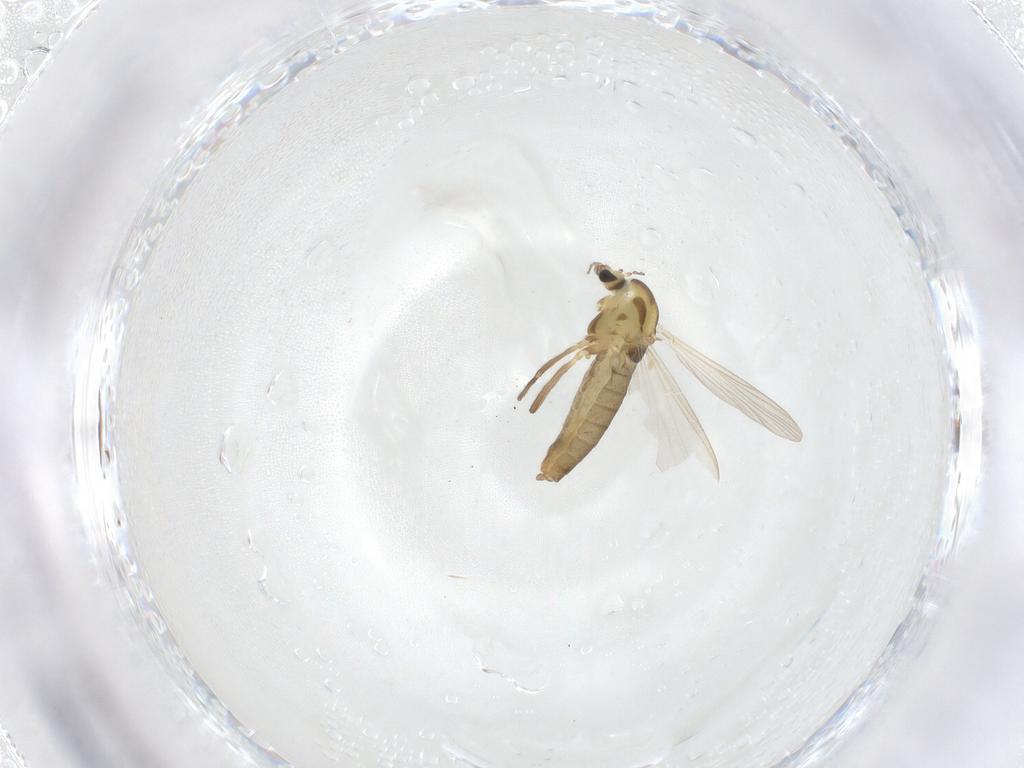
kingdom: Animalia
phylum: Arthropoda
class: Insecta
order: Diptera
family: Chironomidae
